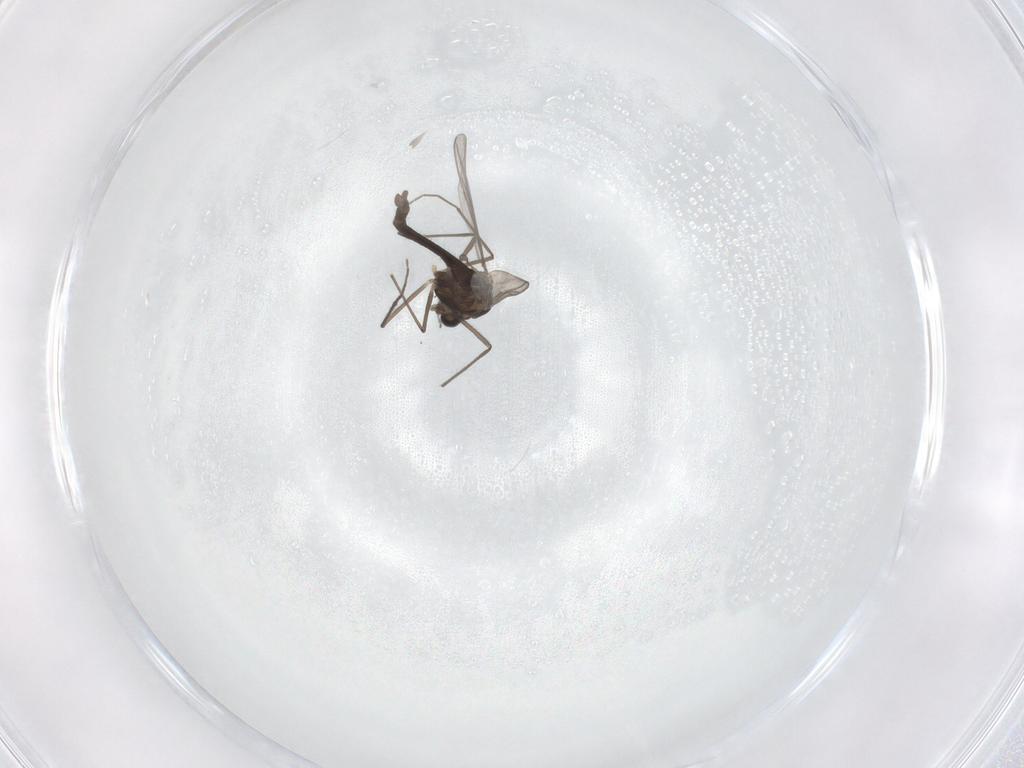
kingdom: Animalia
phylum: Arthropoda
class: Insecta
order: Diptera
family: Chironomidae
